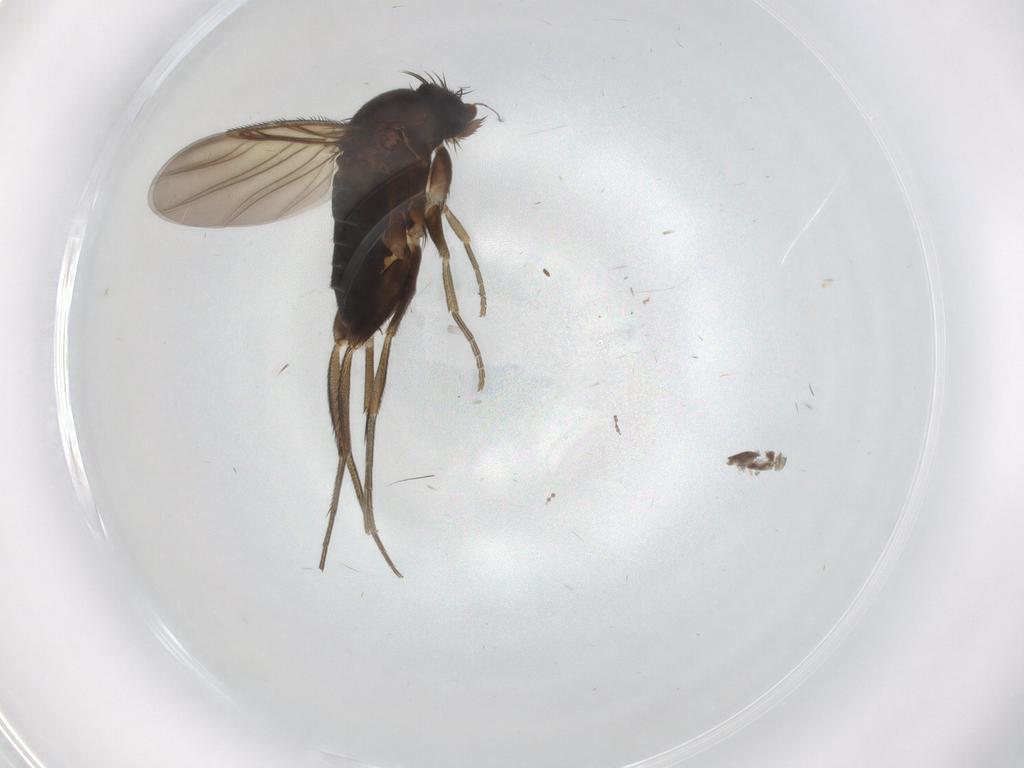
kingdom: Animalia
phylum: Arthropoda
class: Insecta
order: Diptera
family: Phoridae
